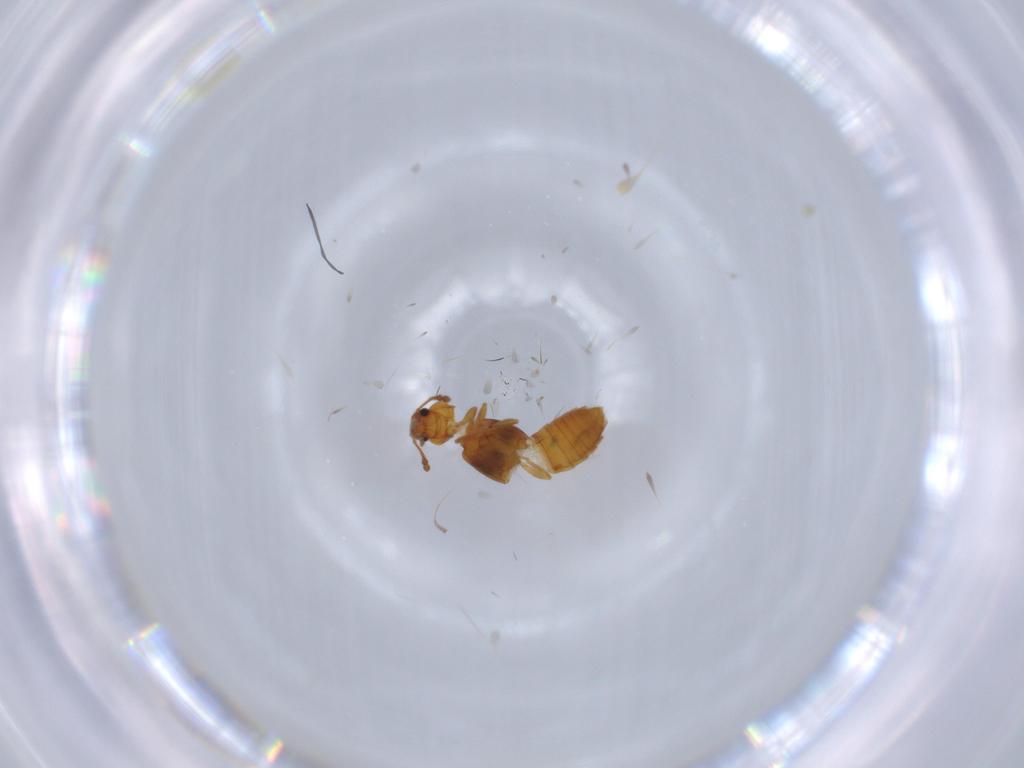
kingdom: Animalia
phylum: Arthropoda
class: Insecta
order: Coleoptera
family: Staphylinidae
